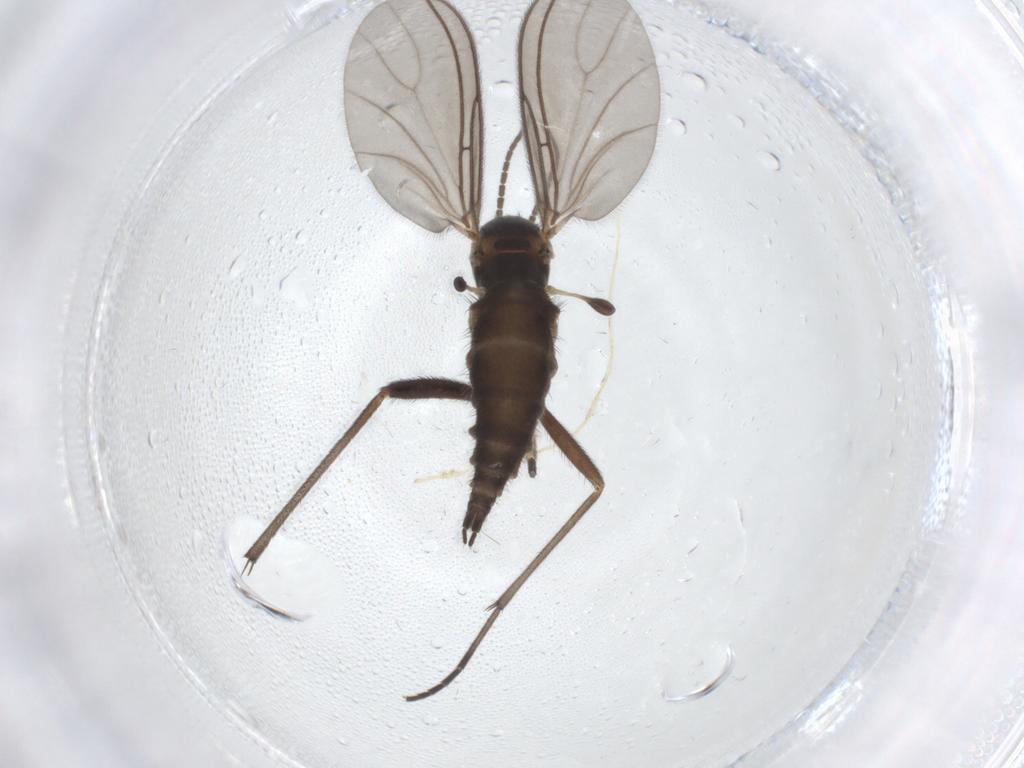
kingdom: Animalia
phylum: Arthropoda
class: Insecta
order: Diptera
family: Sciaridae
